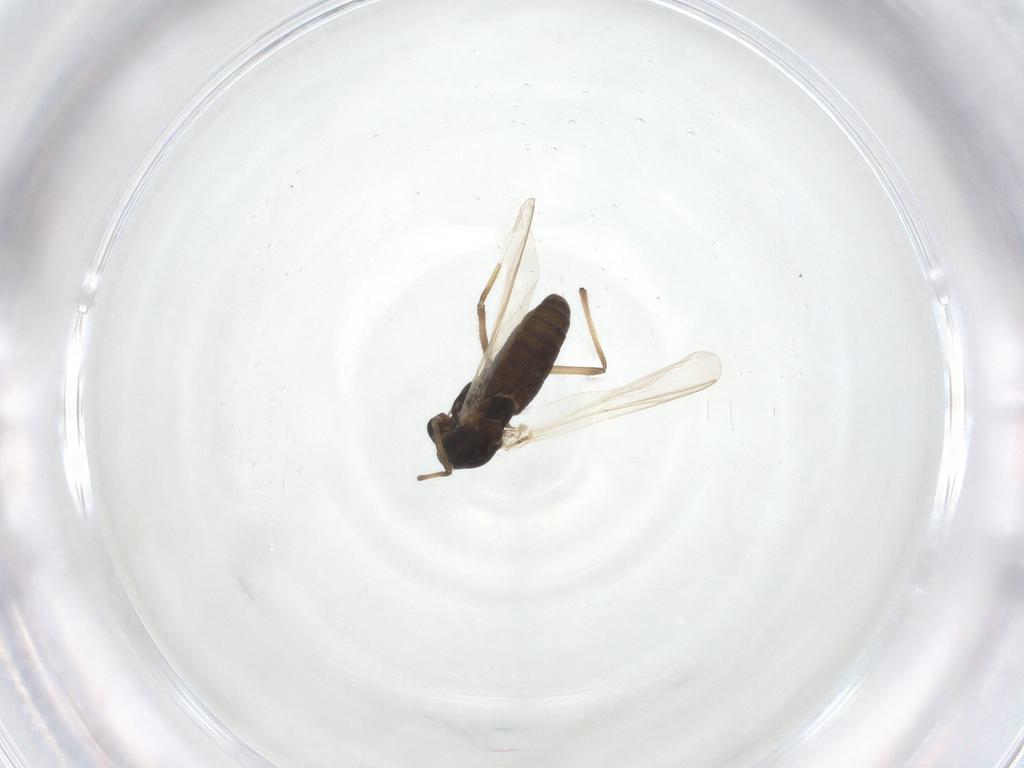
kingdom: Animalia
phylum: Arthropoda
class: Insecta
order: Diptera
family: Chironomidae
